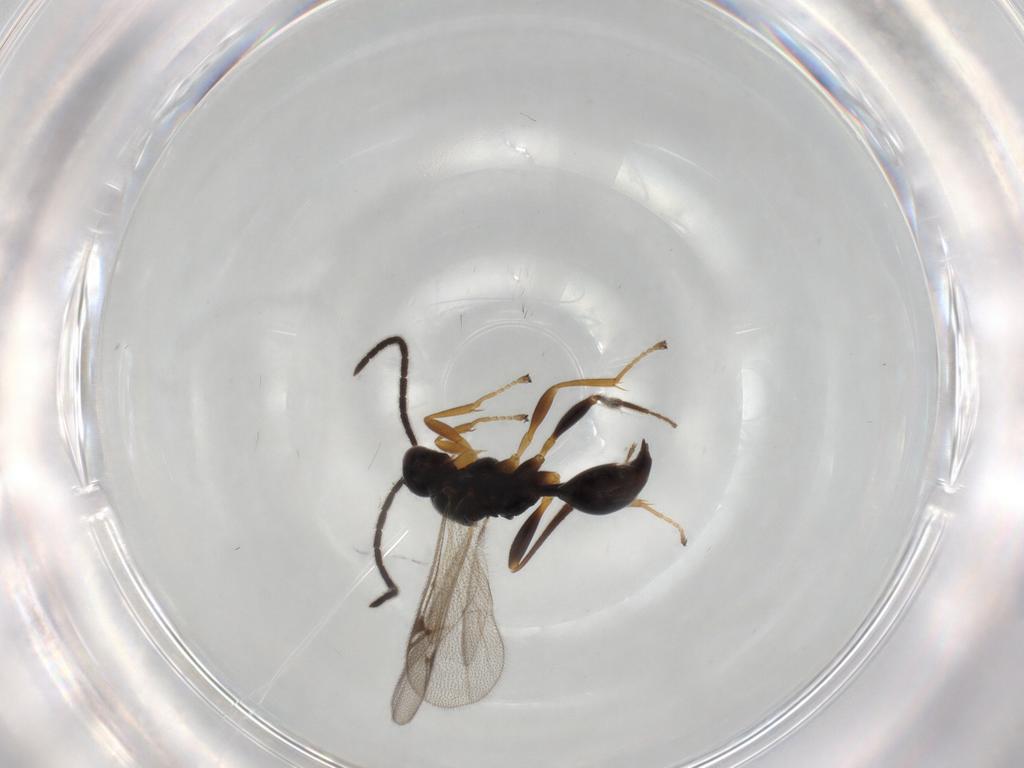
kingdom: Animalia
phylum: Arthropoda
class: Insecta
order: Hymenoptera
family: Proctotrupidae
